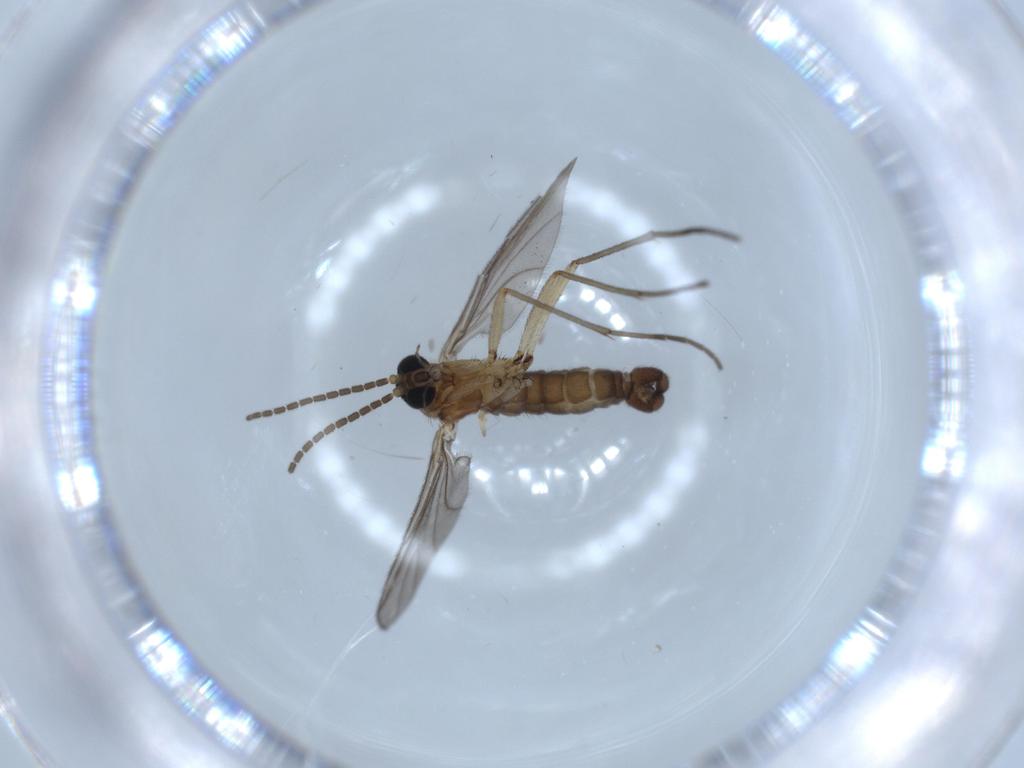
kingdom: Animalia
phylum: Arthropoda
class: Insecta
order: Diptera
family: Sciaridae
